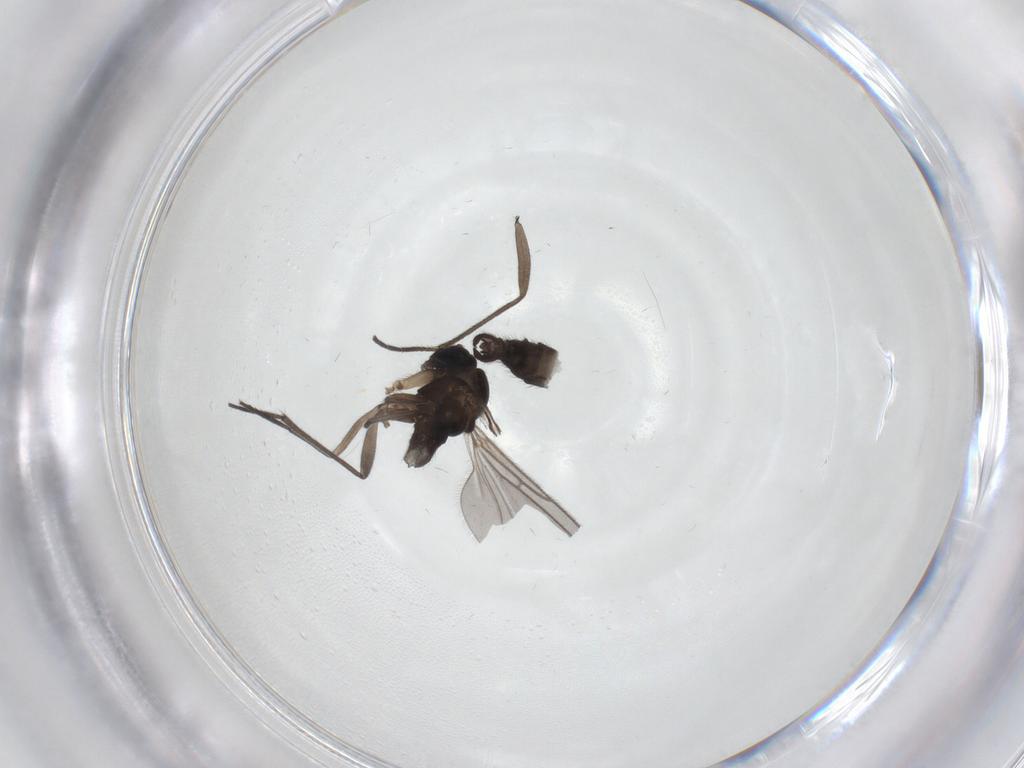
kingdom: Animalia
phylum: Arthropoda
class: Insecta
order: Diptera
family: Sciaridae
